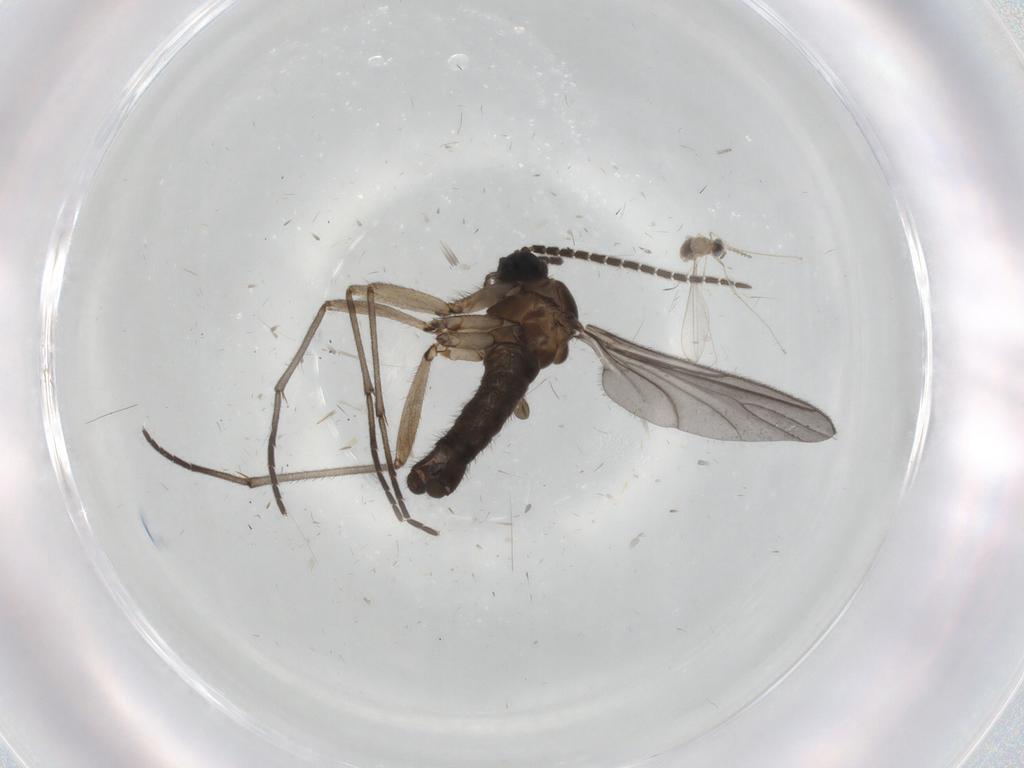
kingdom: Animalia
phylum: Arthropoda
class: Insecta
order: Diptera
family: Sciaridae
